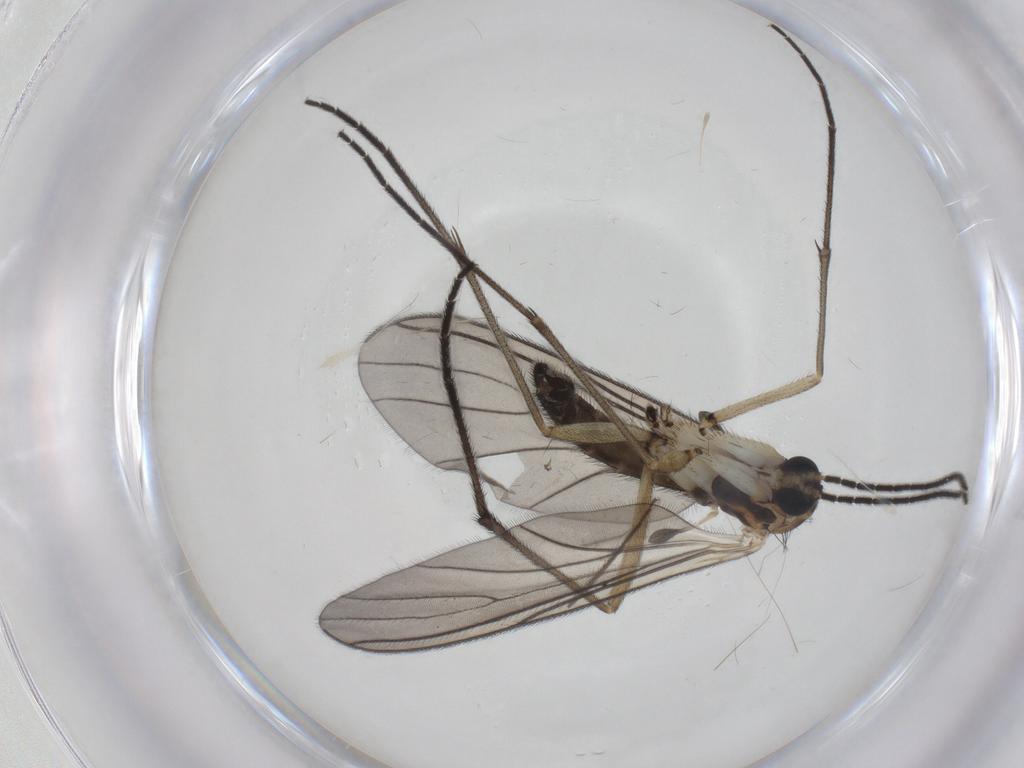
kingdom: Animalia
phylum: Arthropoda
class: Insecta
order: Diptera
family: Sciaridae
